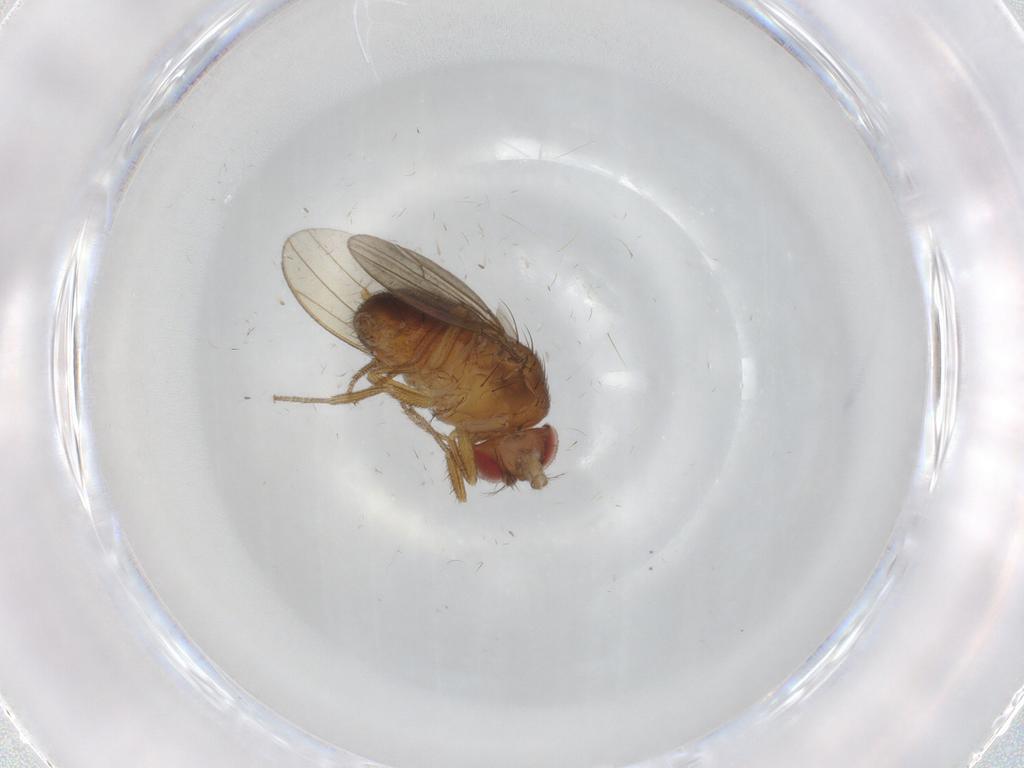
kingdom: Animalia
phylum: Arthropoda
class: Insecta
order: Diptera
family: Drosophilidae
